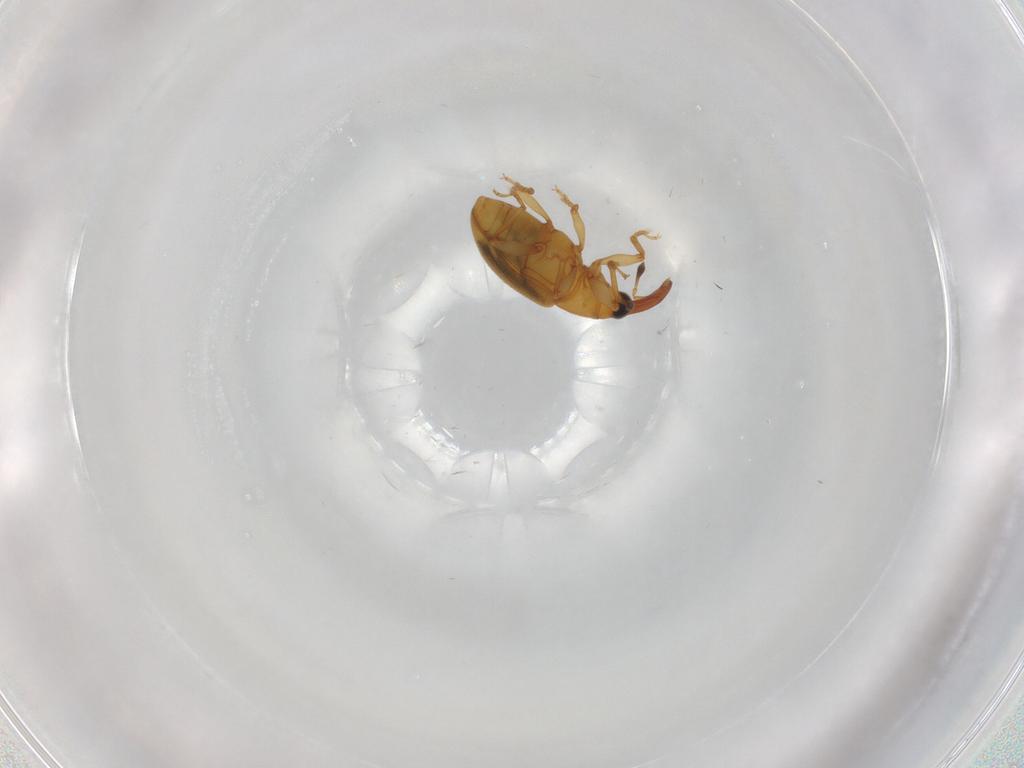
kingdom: Animalia
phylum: Arthropoda
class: Insecta
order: Coleoptera
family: Curculionidae
